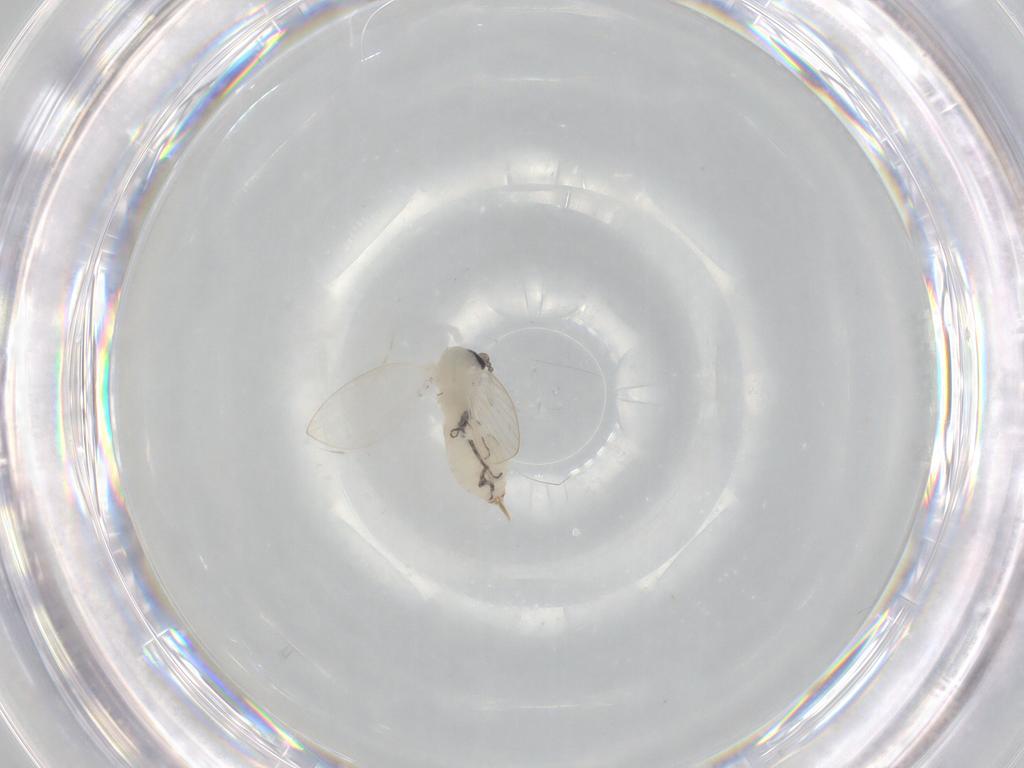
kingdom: Animalia
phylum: Arthropoda
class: Insecta
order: Diptera
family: Psychodidae
